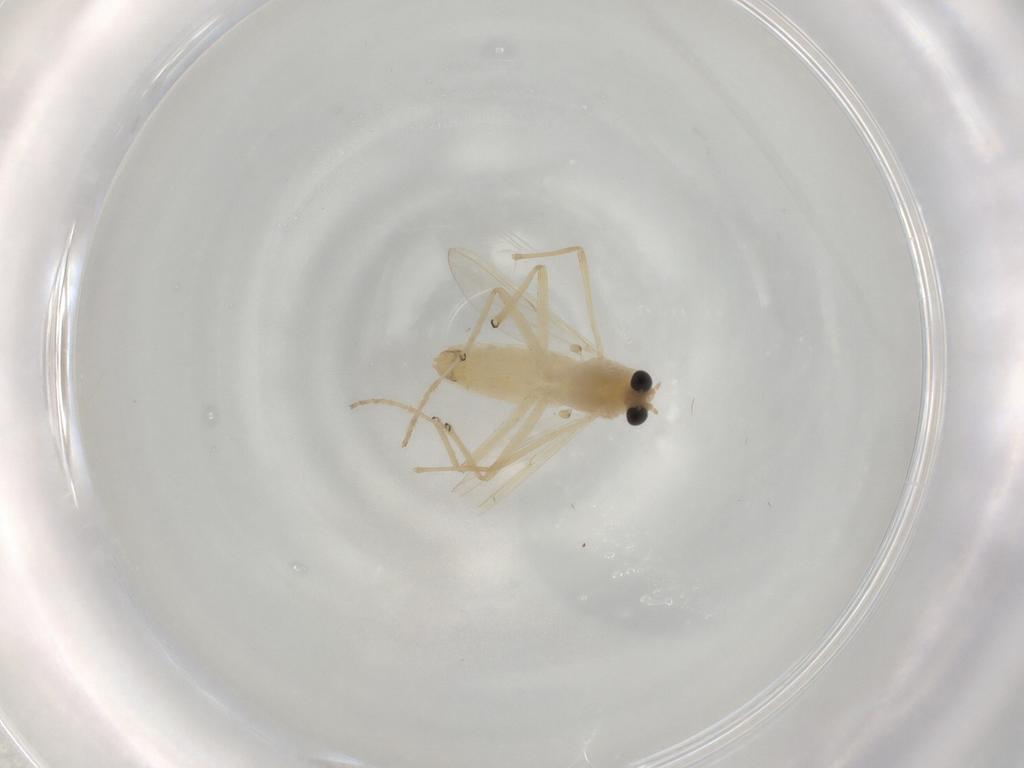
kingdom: Animalia
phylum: Arthropoda
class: Insecta
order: Diptera
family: Chironomidae
